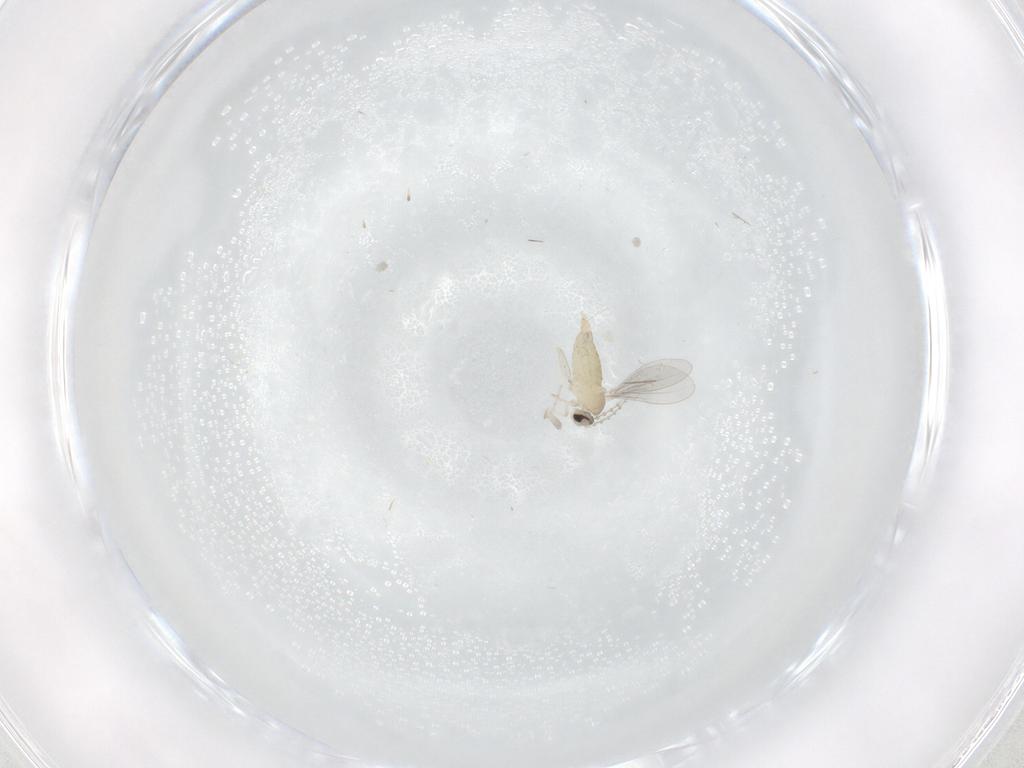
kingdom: Animalia
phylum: Arthropoda
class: Insecta
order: Diptera
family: Cecidomyiidae
